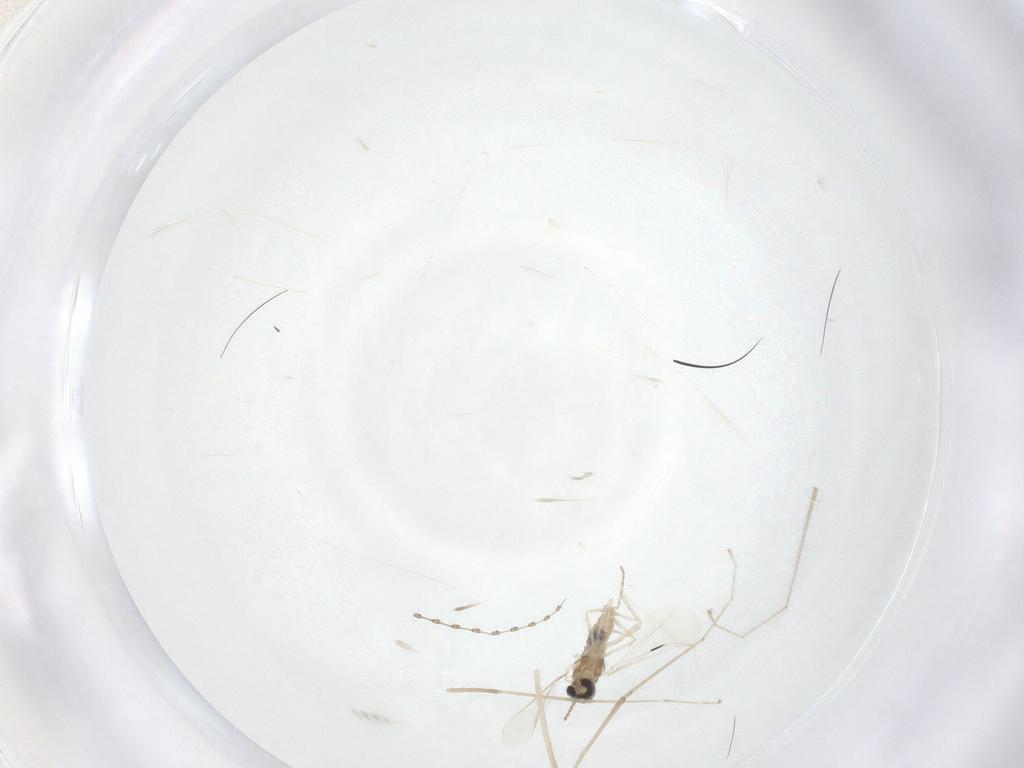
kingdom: Animalia
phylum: Arthropoda
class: Insecta
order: Diptera
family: Cecidomyiidae
